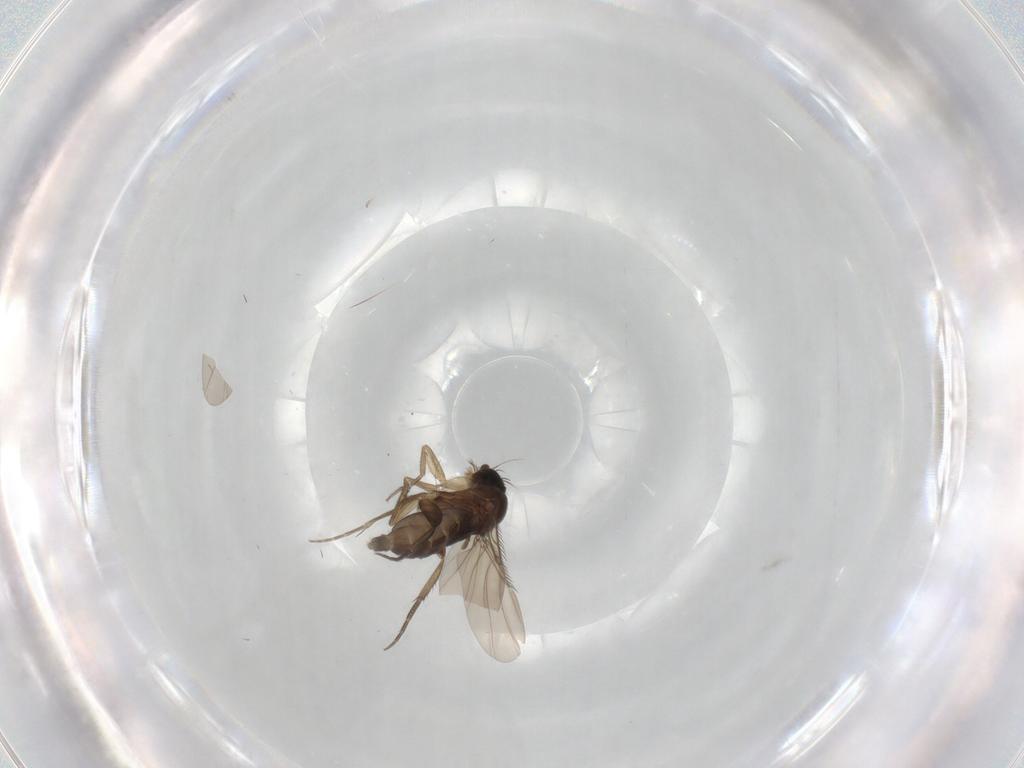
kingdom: Animalia
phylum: Arthropoda
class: Insecta
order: Diptera
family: Phoridae
